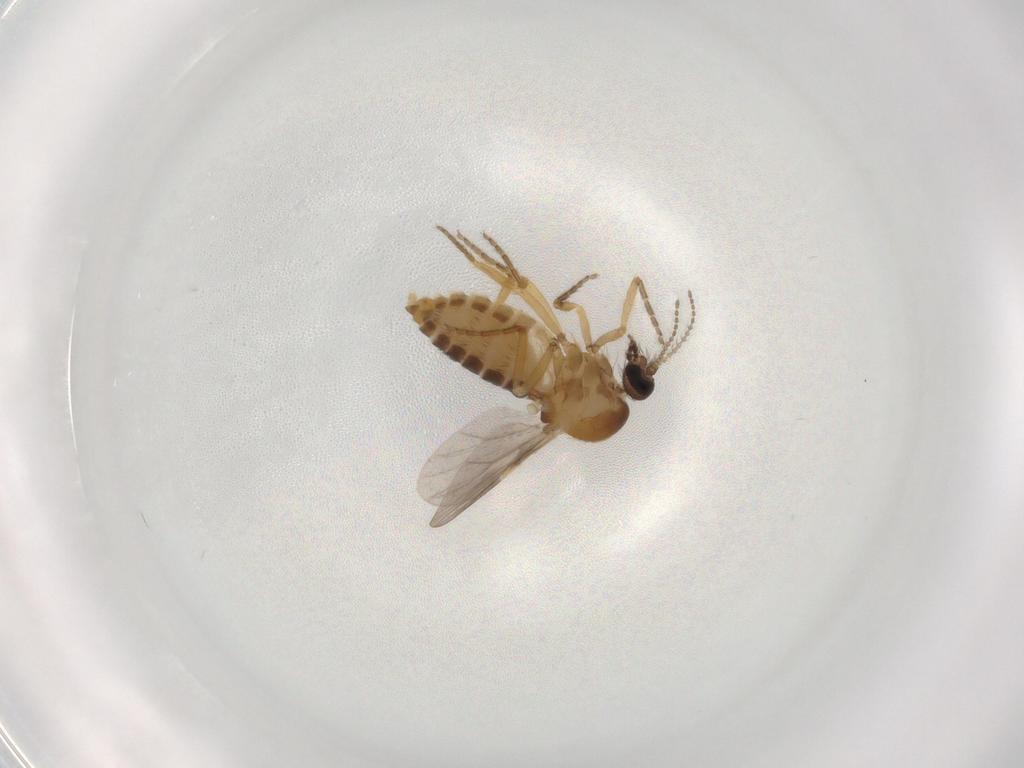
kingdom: Animalia
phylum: Arthropoda
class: Insecta
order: Diptera
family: Ceratopogonidae
